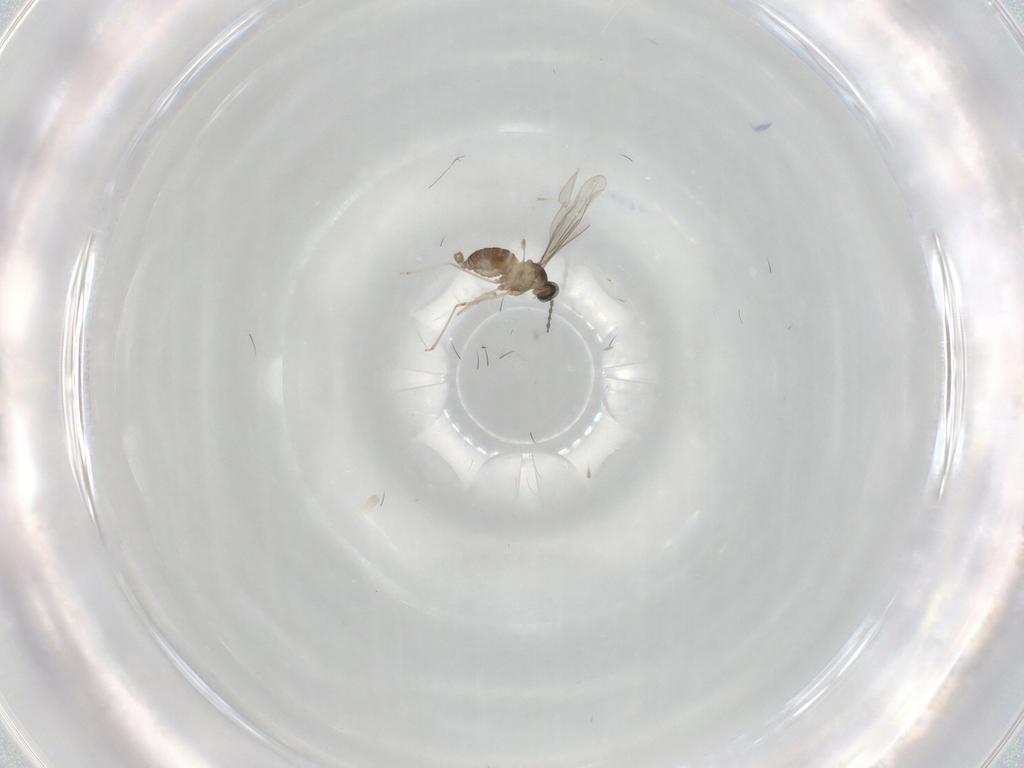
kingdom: Animalia
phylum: Arthropoda
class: Insecta
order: Diptera
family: Cecidomyiidae
